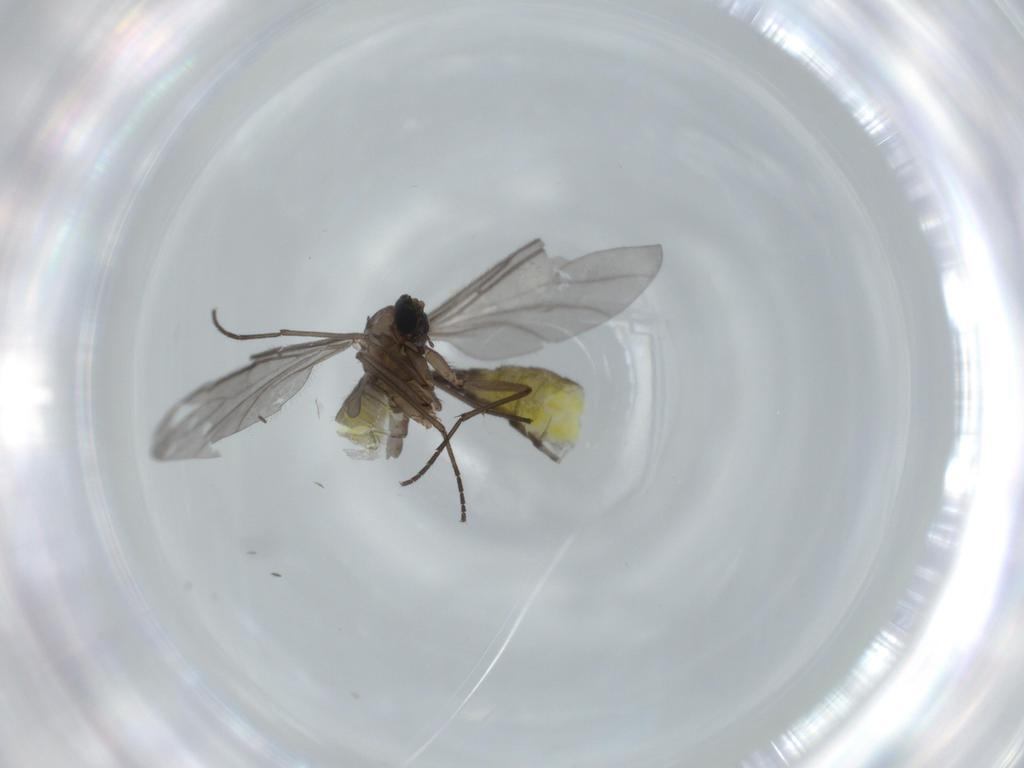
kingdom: Animalia
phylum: Arthropoda
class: Insecta
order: Diptera
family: Sciaridae
